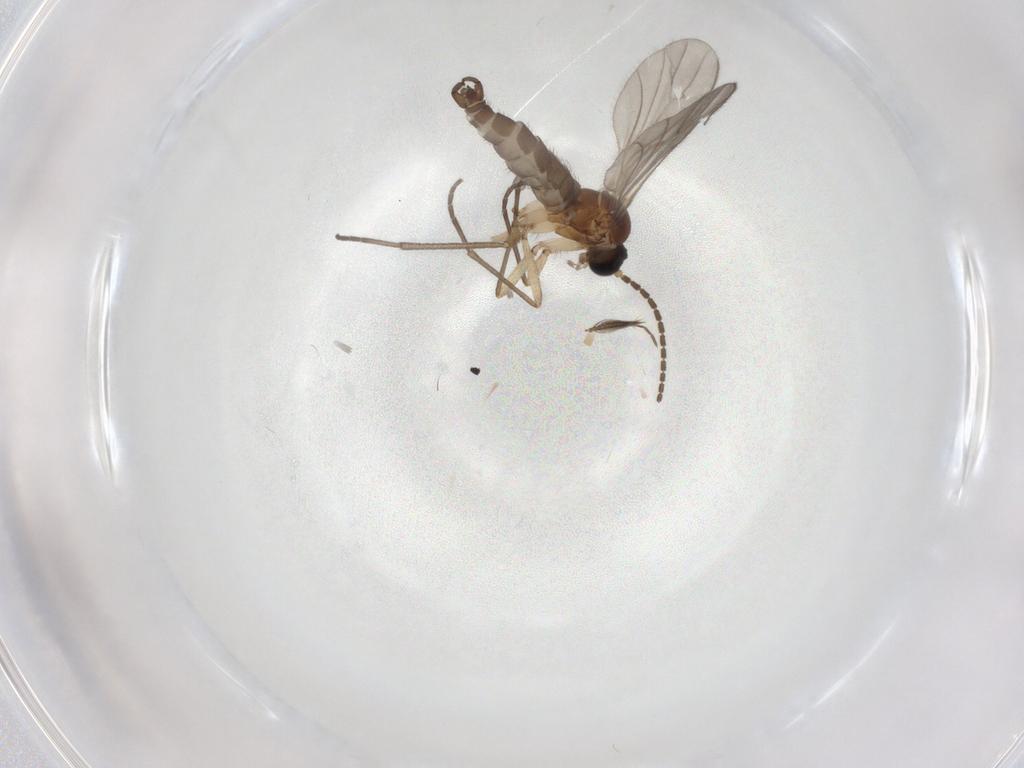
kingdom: Animalia
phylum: Arthropoda
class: Insecta
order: Diptera
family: Sciaridae
